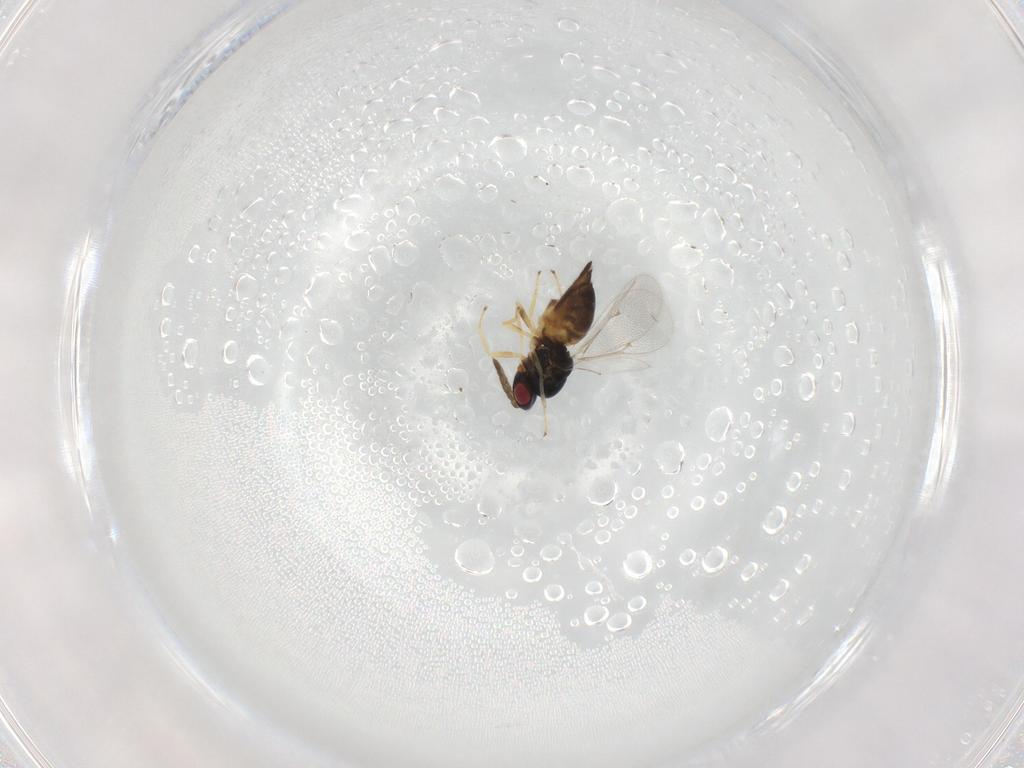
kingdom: Animalia
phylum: Arthropoda
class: Insecta
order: Hymenoptera
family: Eulophidae
